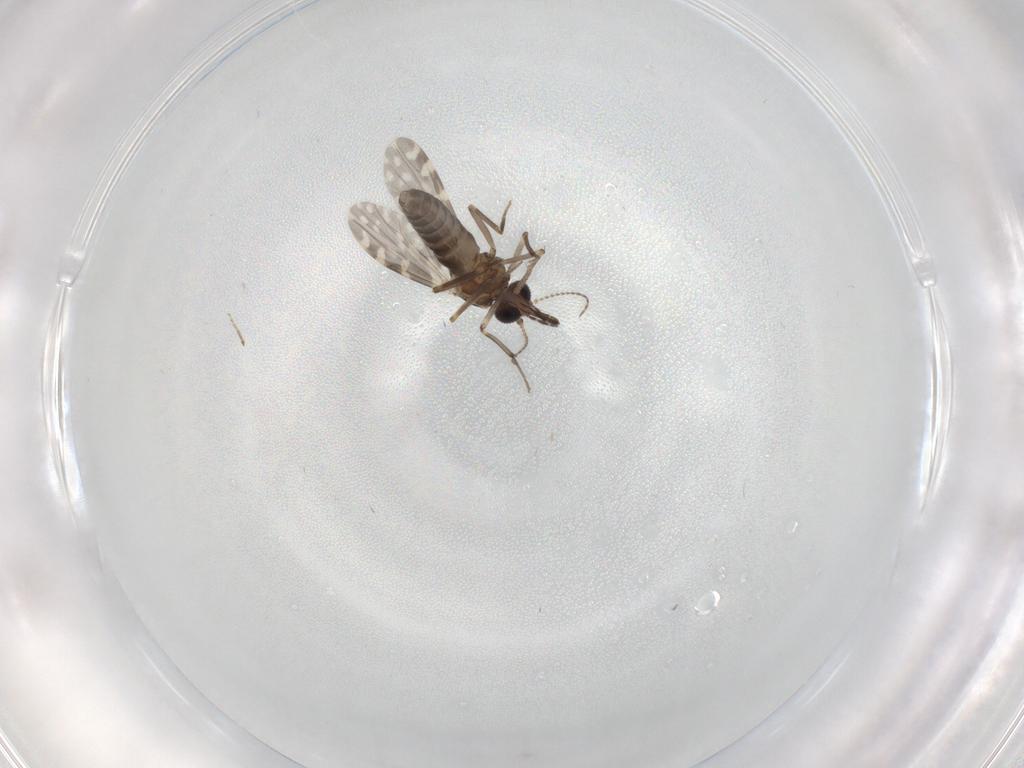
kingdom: Animalia
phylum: Arthropoda
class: Insecta
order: Diptera
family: Ceratopogonidae
